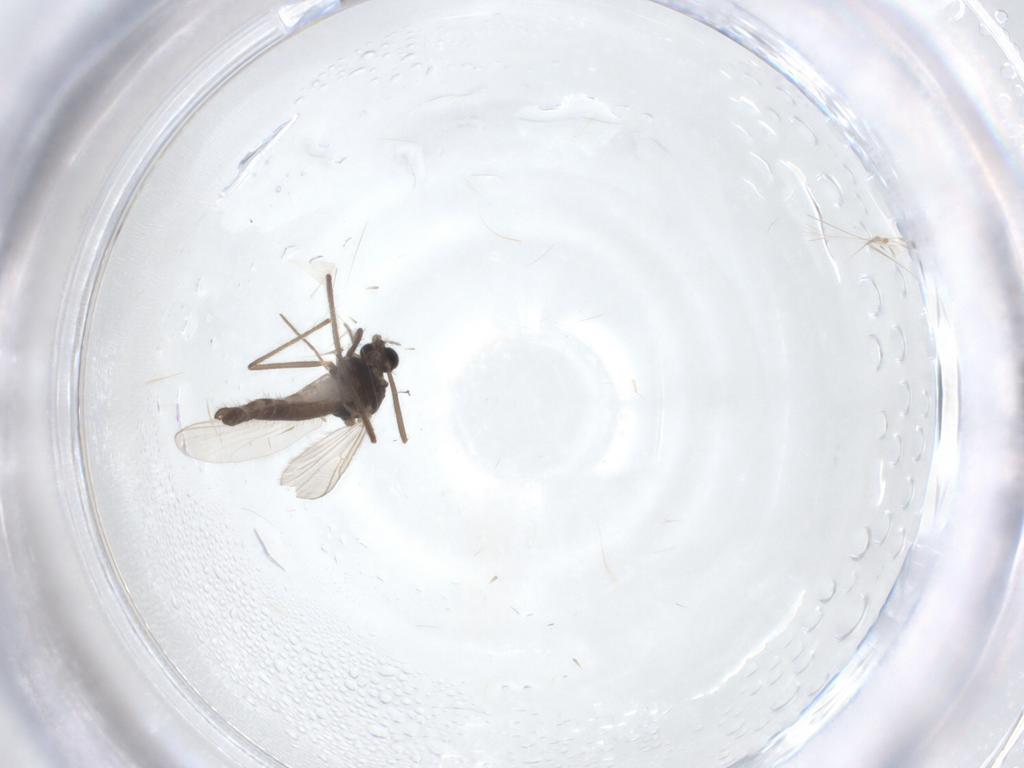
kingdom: Animalia
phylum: Arthropoda
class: Insecta
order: Diptera
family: Chironomidae
